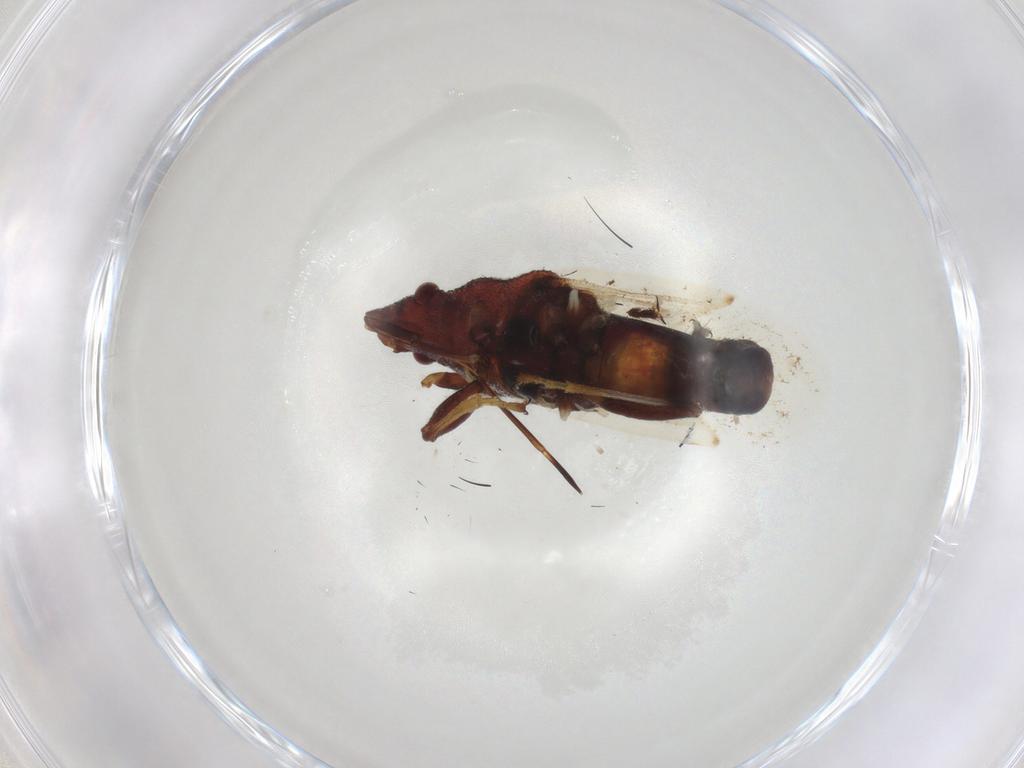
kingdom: Animalia
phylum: Arthropoda
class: Insecta
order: Hemiptera
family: Oxycarenidae
